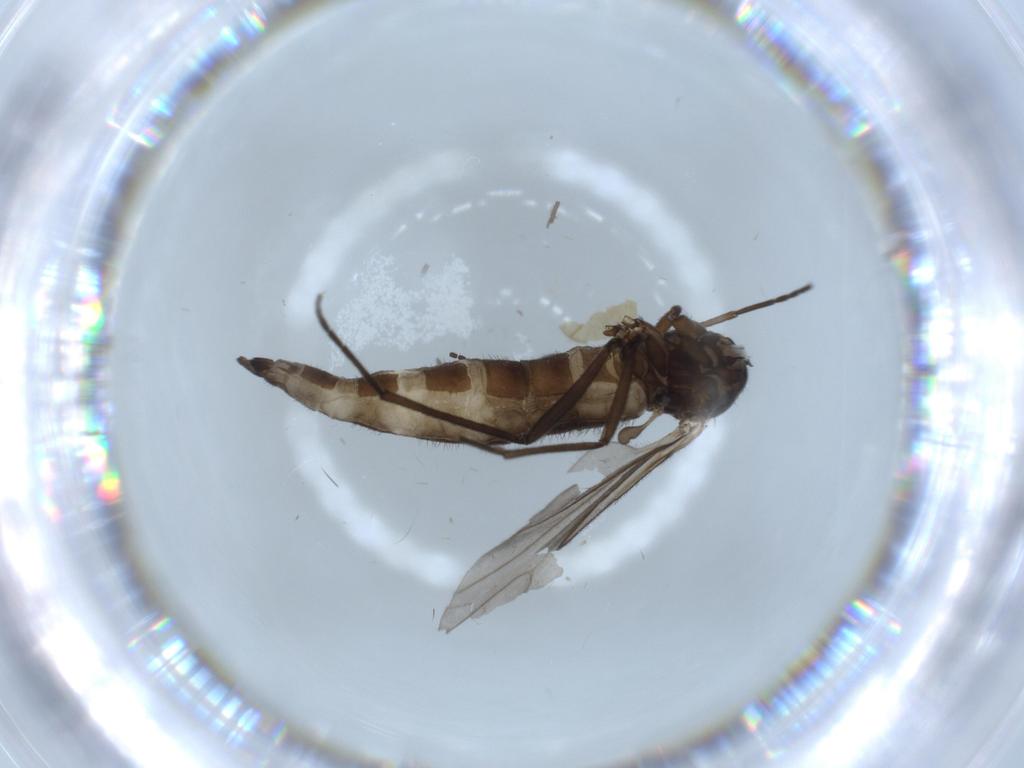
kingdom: Animalia
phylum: Arthropoda
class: Insecta
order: Diptera
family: Sciaridae
